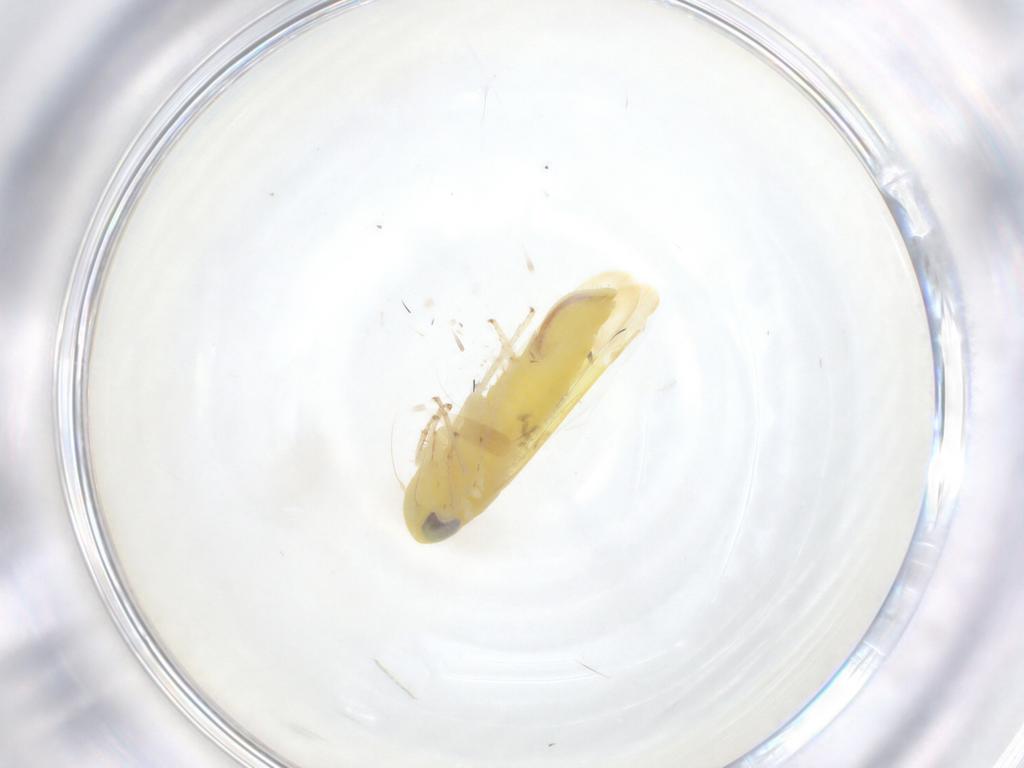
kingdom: Animalia
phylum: Arthropoda
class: Insecta
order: Hemiptera
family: Cicadellidae
